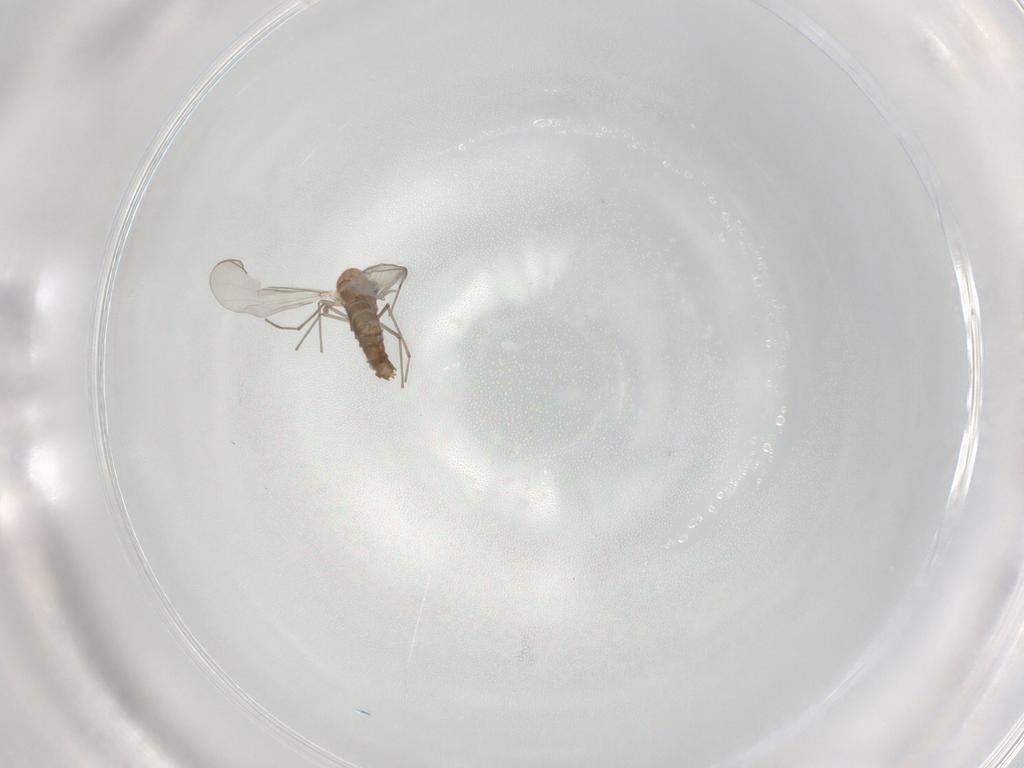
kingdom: Animalia
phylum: Arthropoda
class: Insecta
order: Diptera
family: Chironomidae
